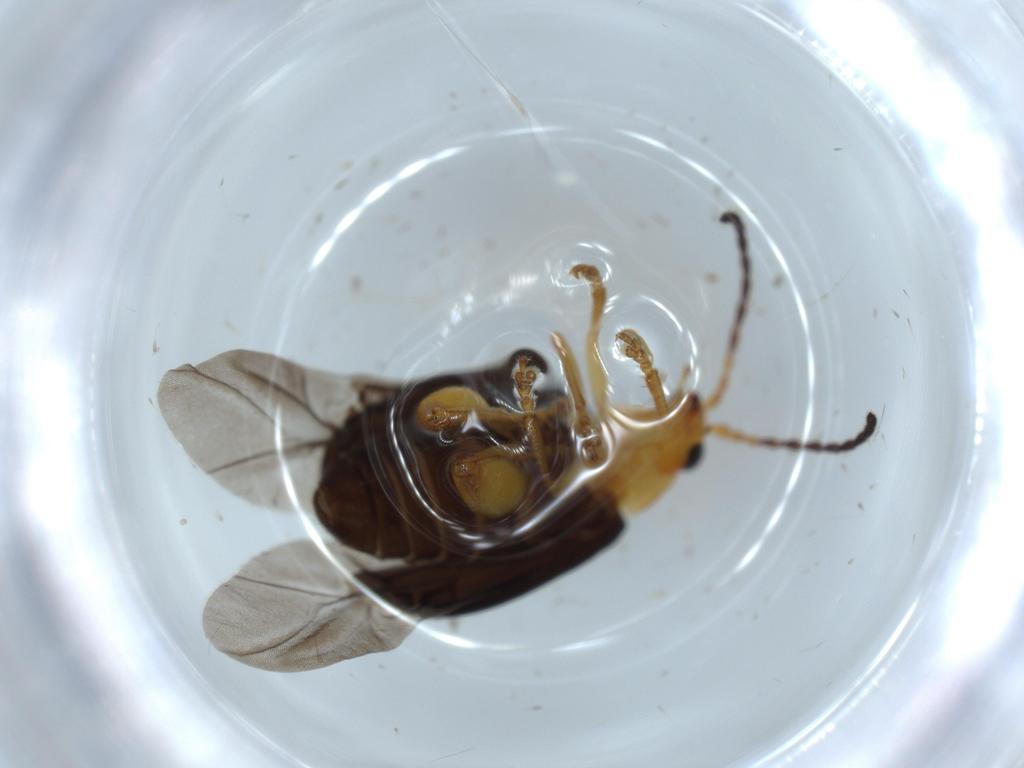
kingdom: Animalia
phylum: Arthropoda
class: Insecta
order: Coleoptera
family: Chrysomelidae
